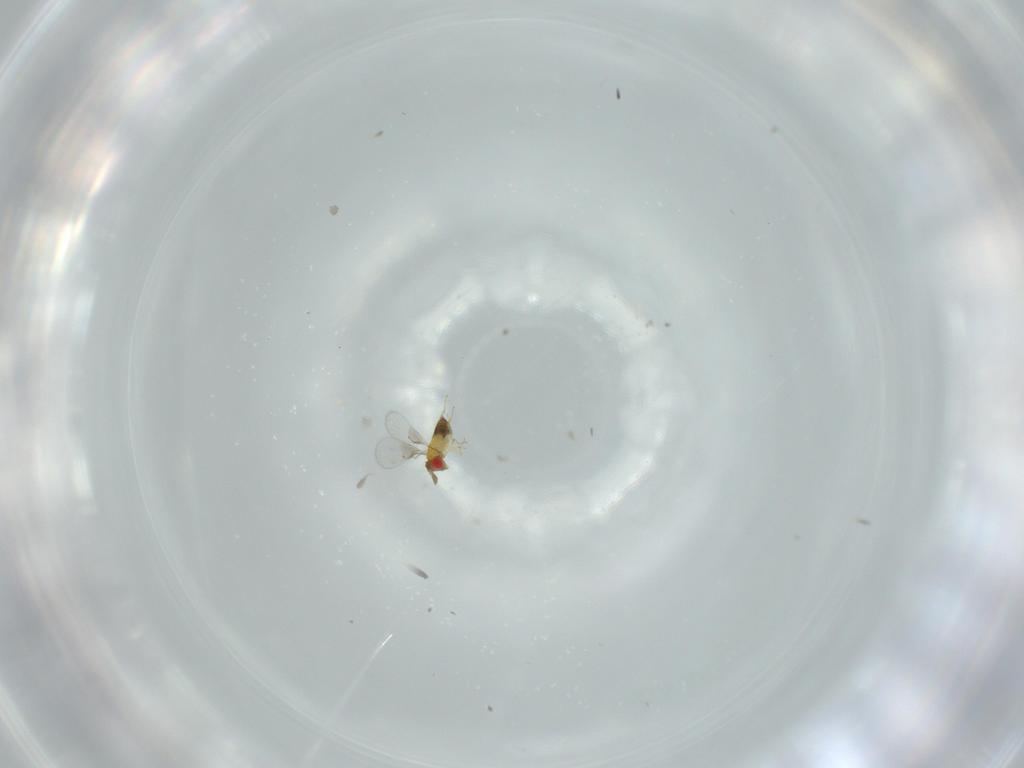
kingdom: Animalia
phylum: Arthropoda
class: Insecta
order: Hymenoptera
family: Trichogrammatidae
